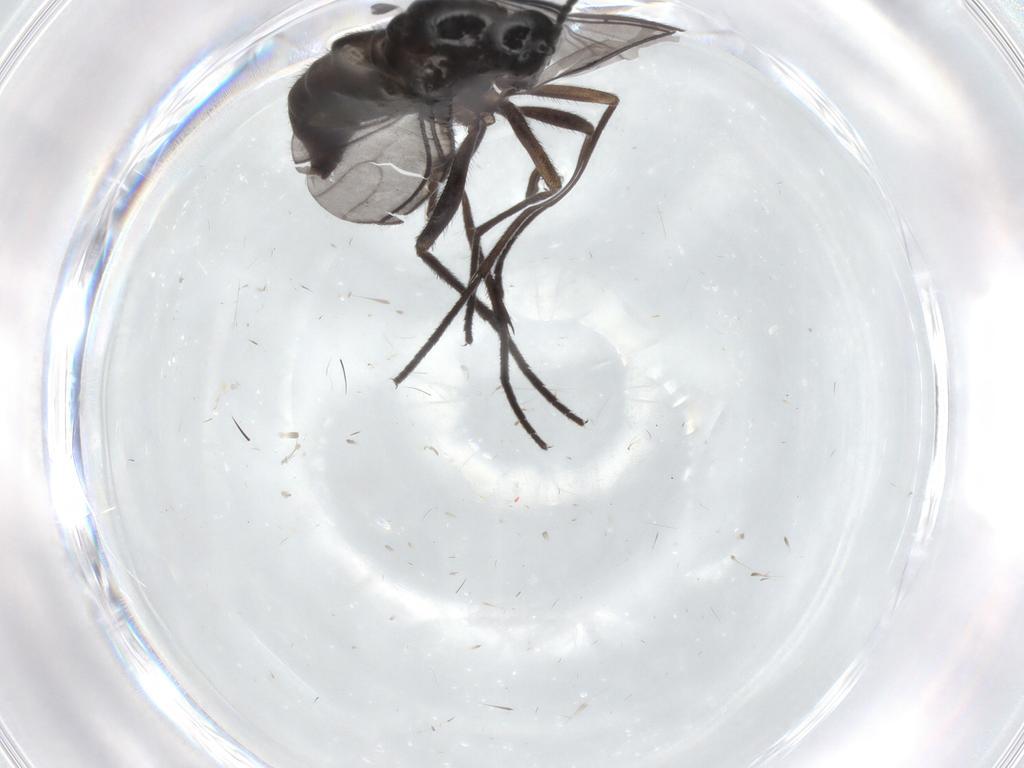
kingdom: Animalia
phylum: Arthropoda
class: Insecta
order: Diptera
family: Sciaridae
